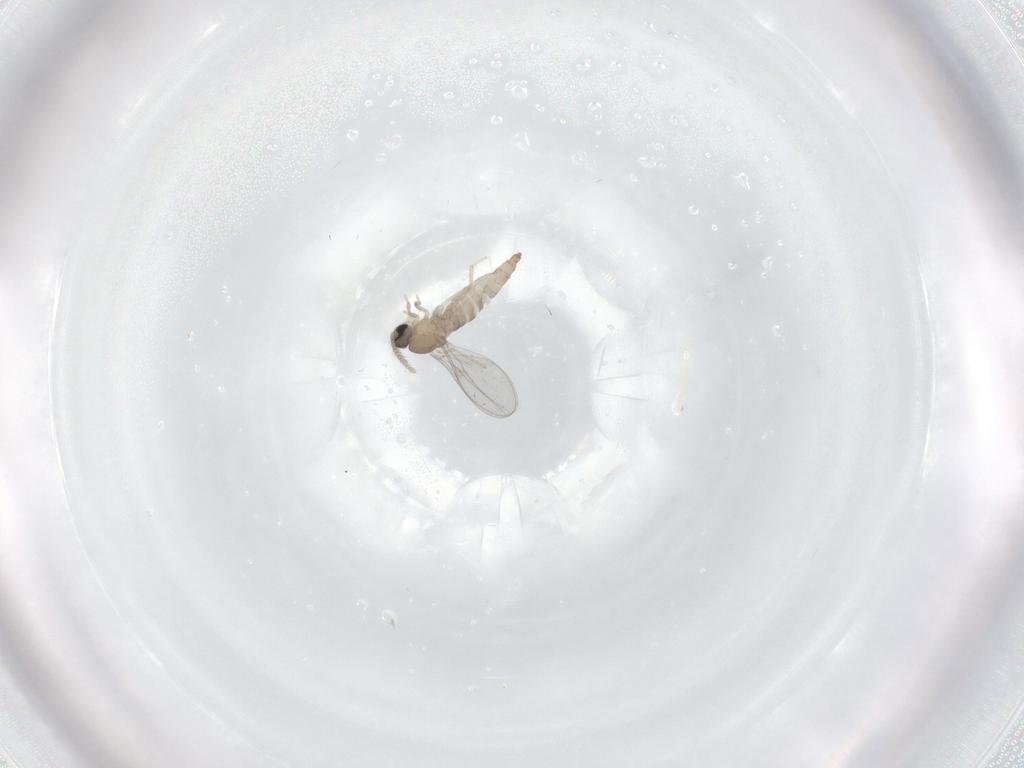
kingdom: Animalia
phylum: Arthropoda
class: Insecta
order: Diptera
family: Cecidomyiidae
